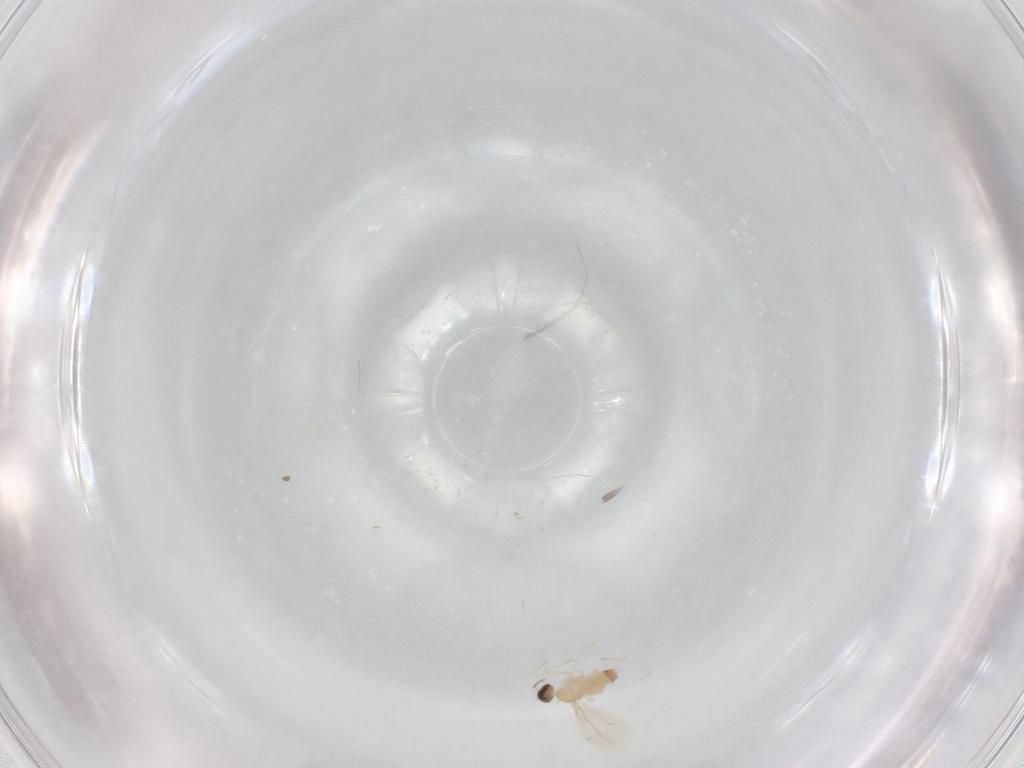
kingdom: Animalia
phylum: Arthropoda
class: Insecta
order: Diptera
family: Cecidomyiidae
